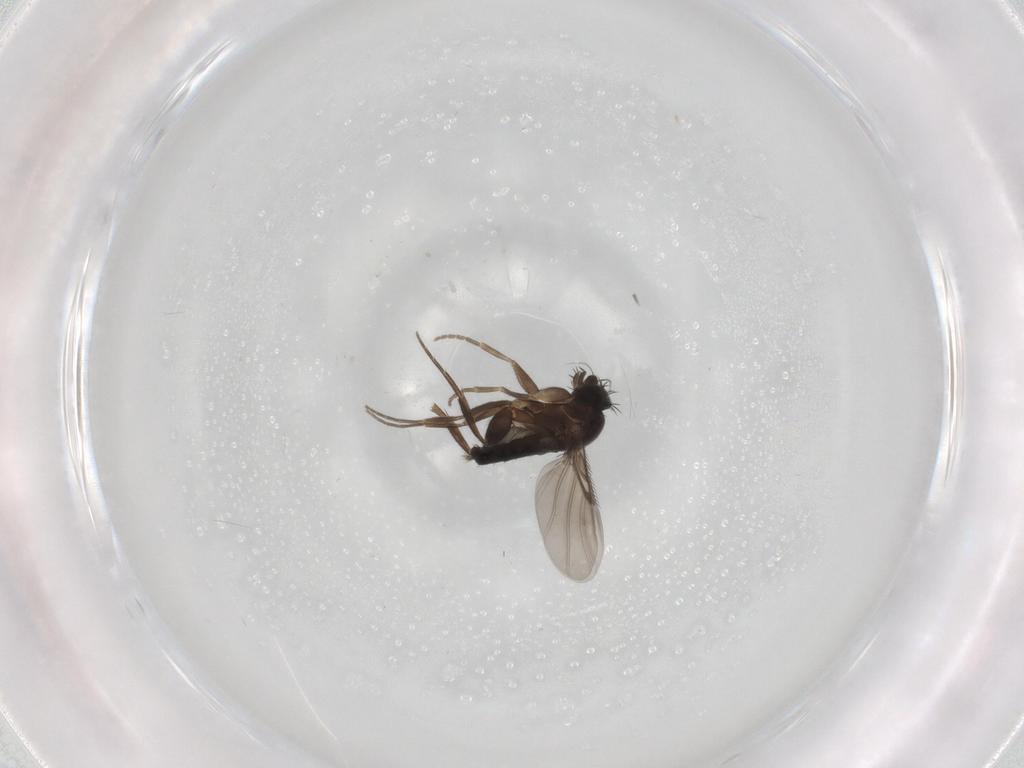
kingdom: Animalia
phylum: Arthropoda
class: Insecta
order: Diptera
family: Phoridae
